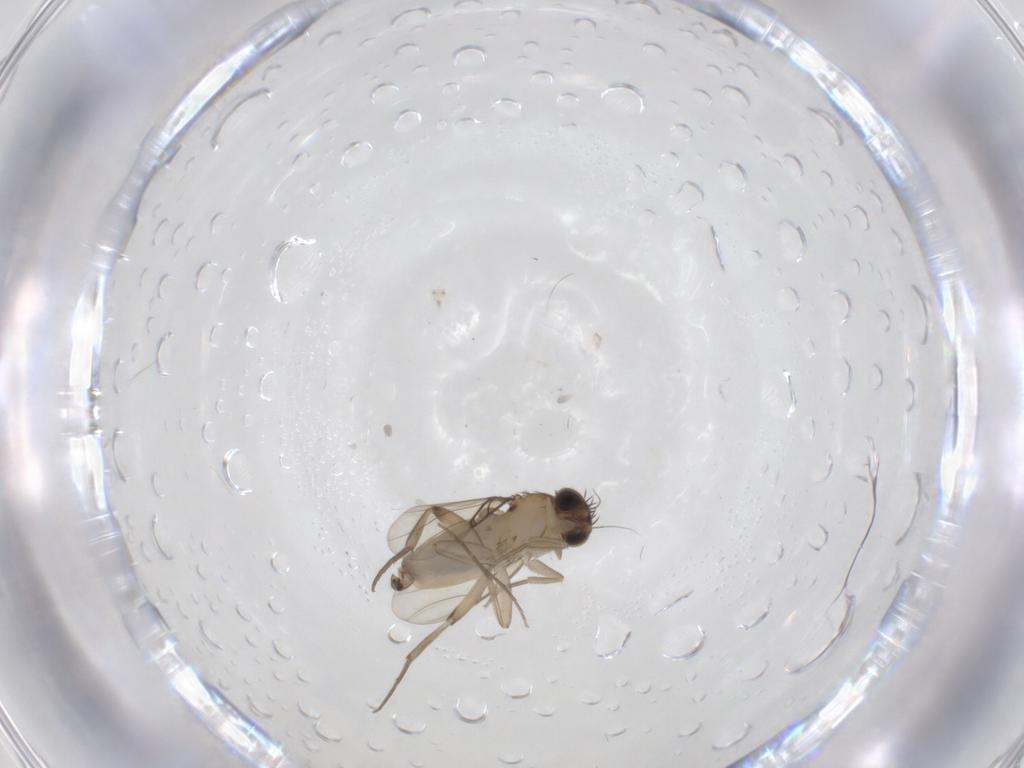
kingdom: Animalia
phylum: Arthropoda
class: Insecta
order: Diptera
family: Phoridae
